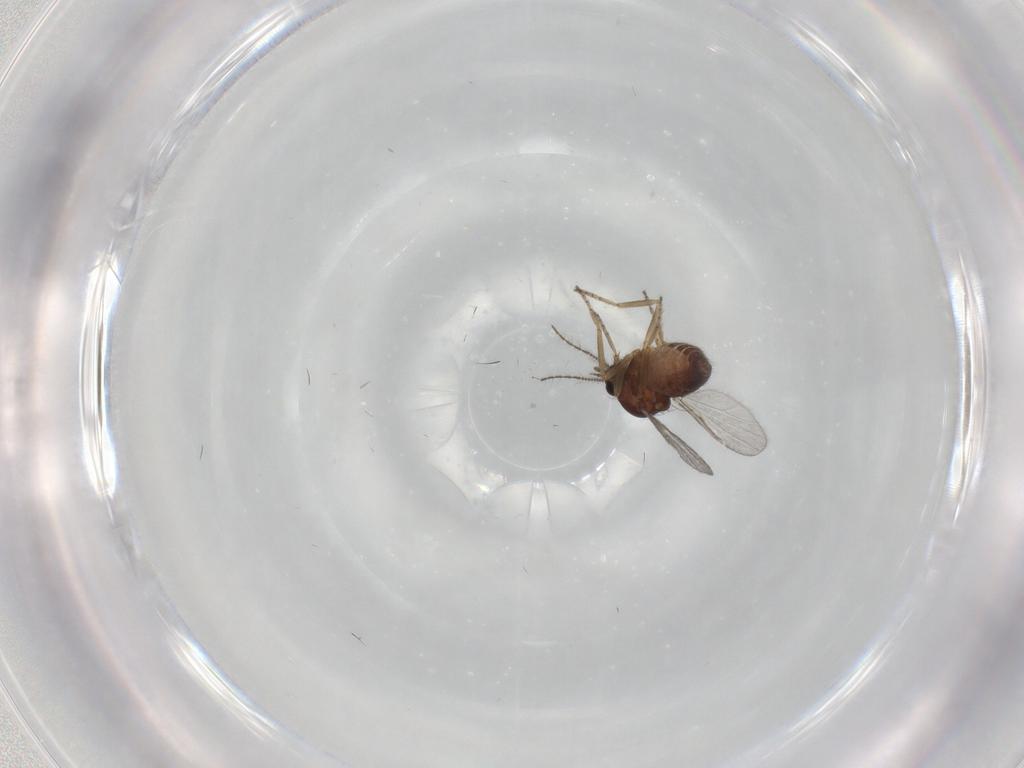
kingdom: Animalia
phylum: Arthropoda
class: Insecta
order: Diptera
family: Ceratopogonidae
